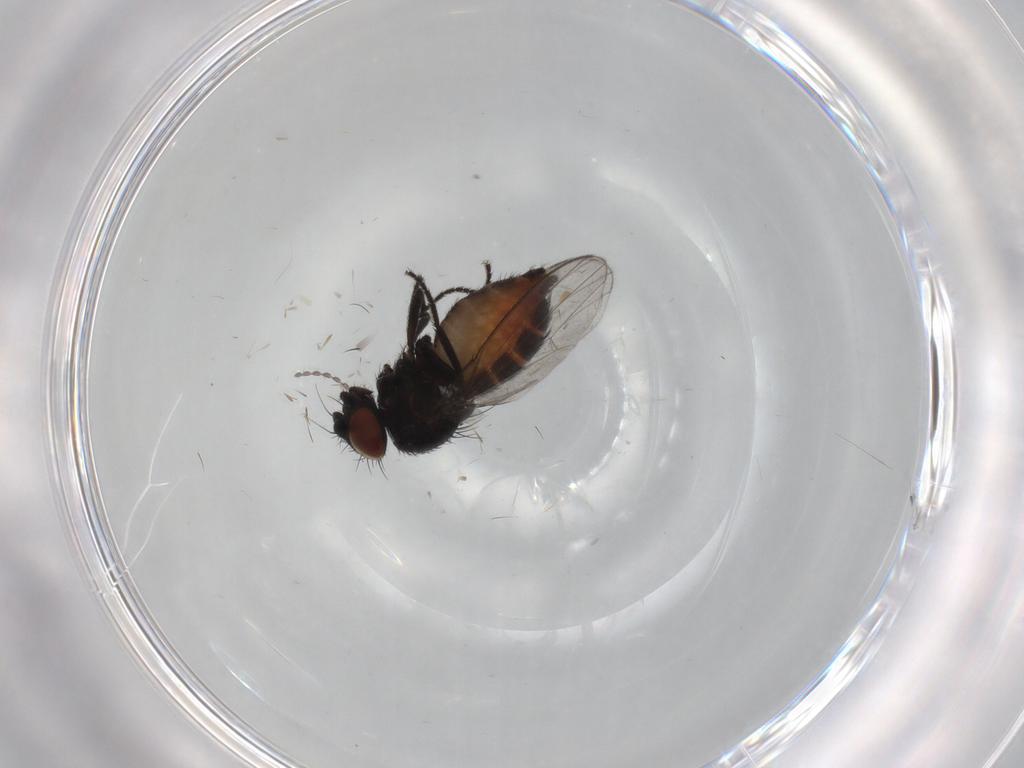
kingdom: Animalia
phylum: Arthropoda
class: Insecta
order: Diptera
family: Milichiidae
